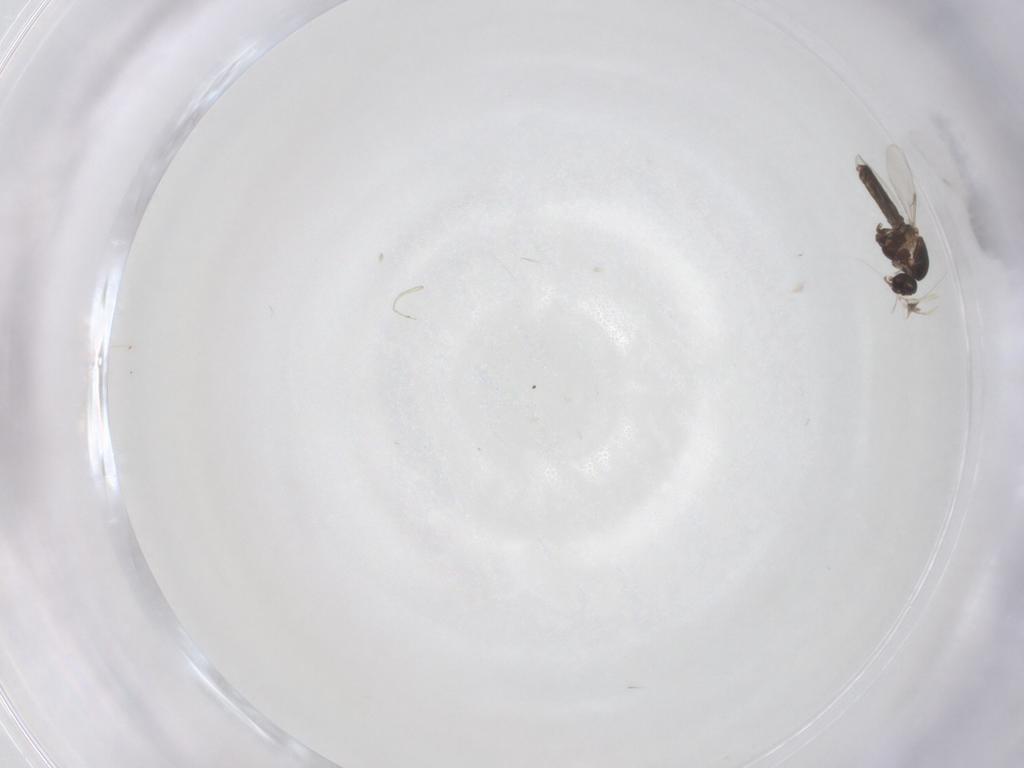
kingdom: Animalia
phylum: Arthropoda
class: Insecta
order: Diptera
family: Ceratopogonidae
